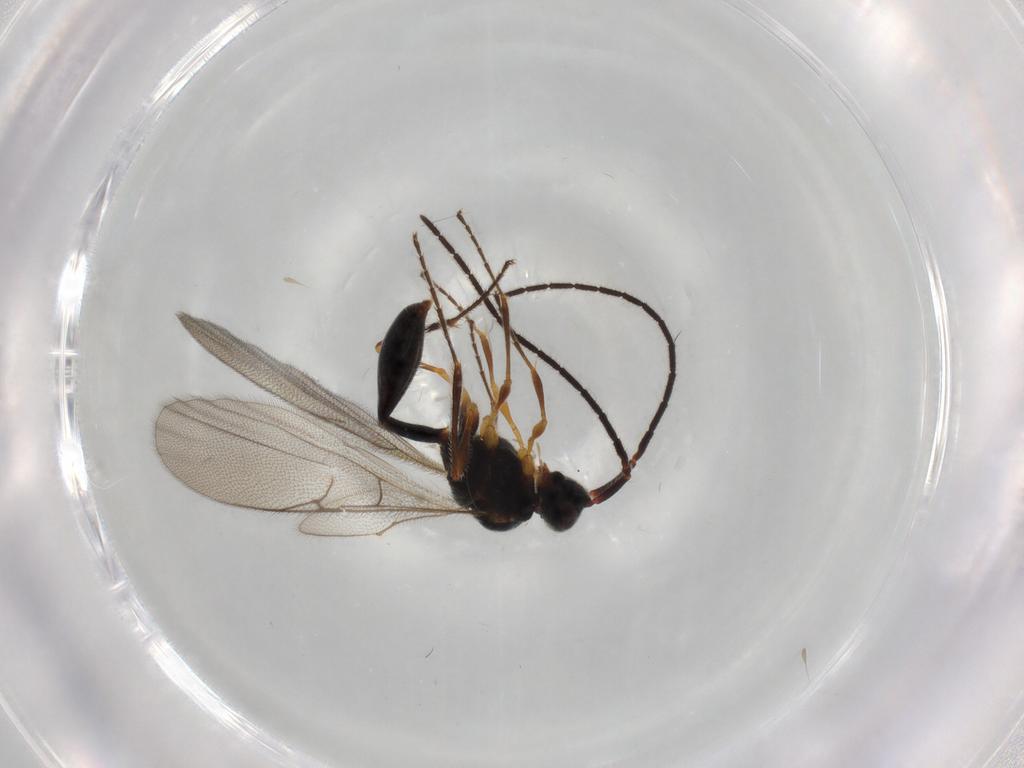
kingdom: Animalia
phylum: Arthropoda
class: Insecta
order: Hymenoptera
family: Diapriidae
